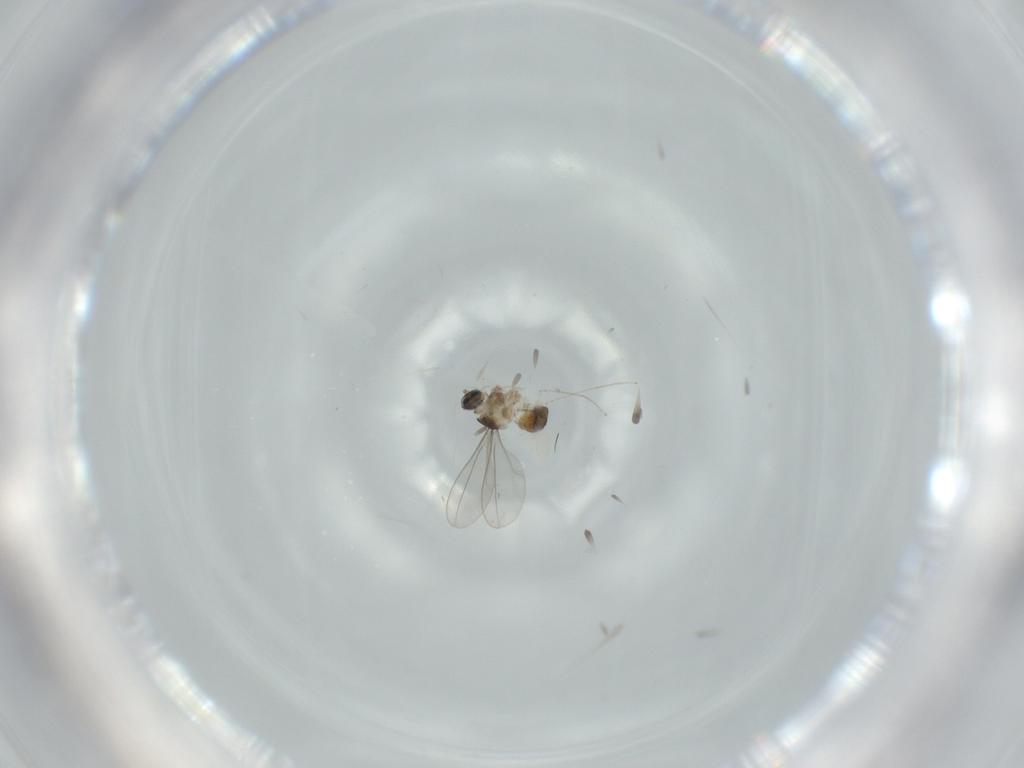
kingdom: Animalia
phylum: Arthropoda
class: Insecta
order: Diptera
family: Cecidomyiidae
